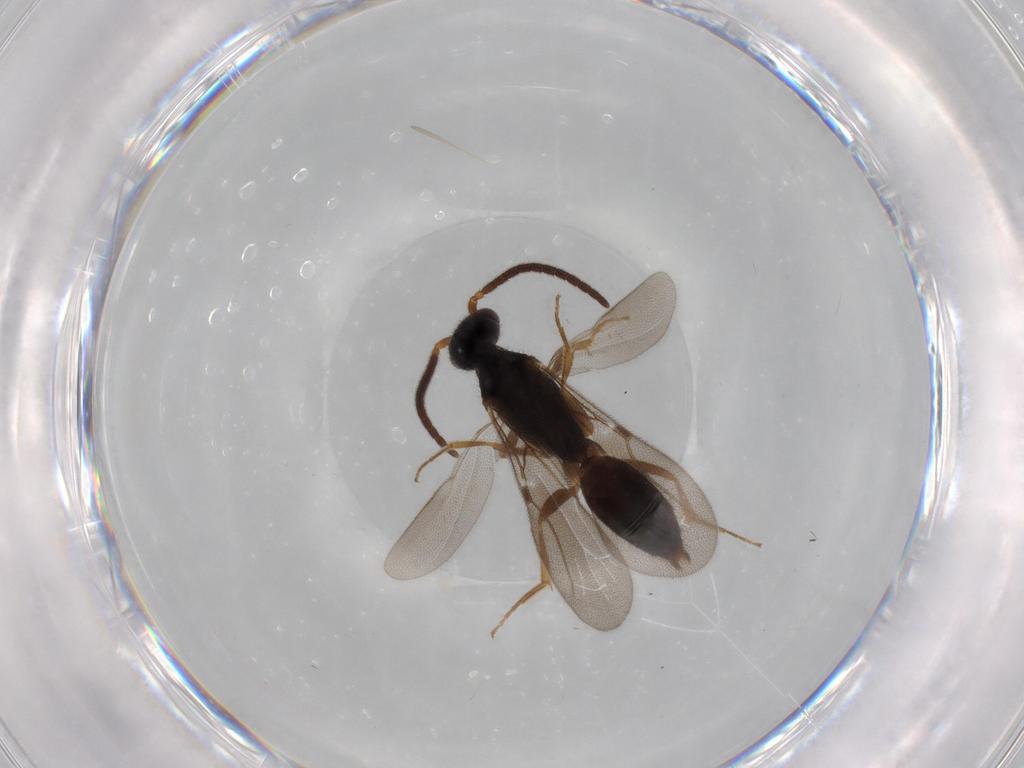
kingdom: Animalia
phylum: Arthropoda
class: Insecta
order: Hymenoptera
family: Bethylidae
